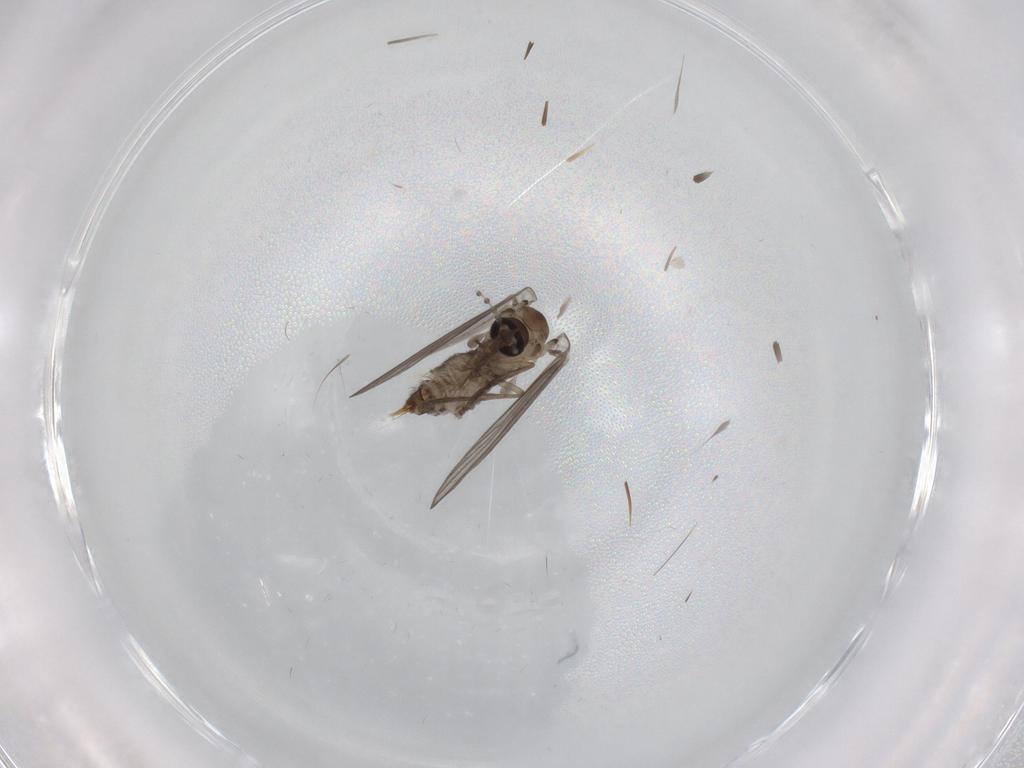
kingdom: Animalia
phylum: Arthropoda
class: Insecta
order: Diptera
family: Psychodidae
